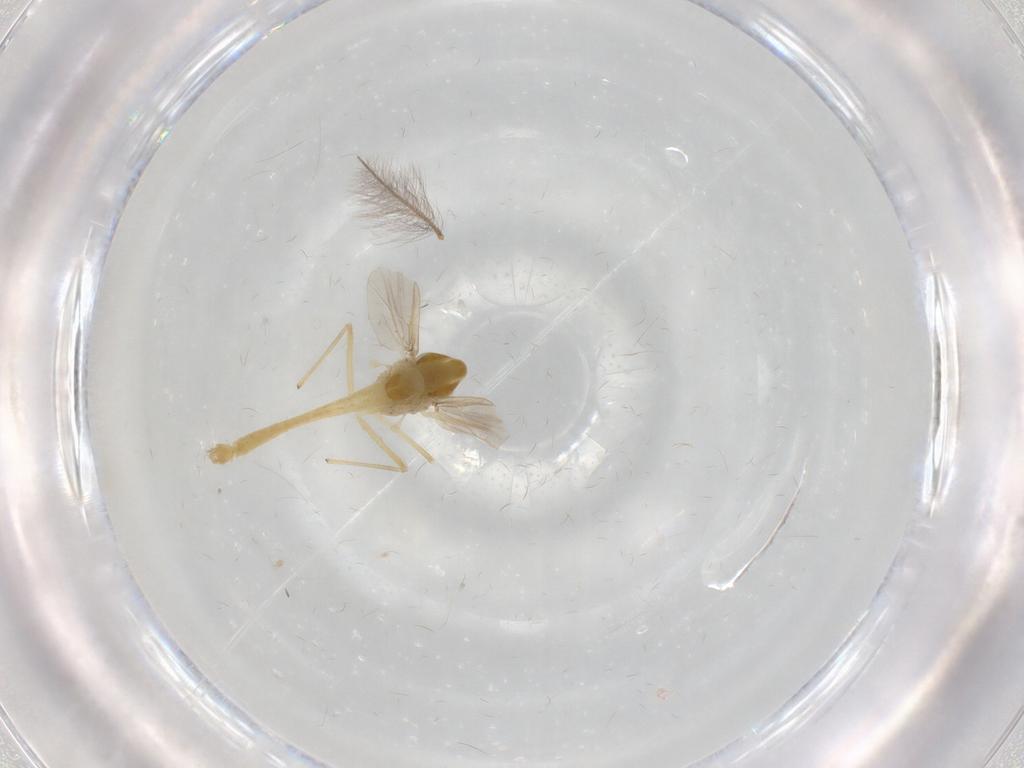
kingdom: Animalia
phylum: Arthropoda
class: Insecta
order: Diptera
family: Chironomidae
